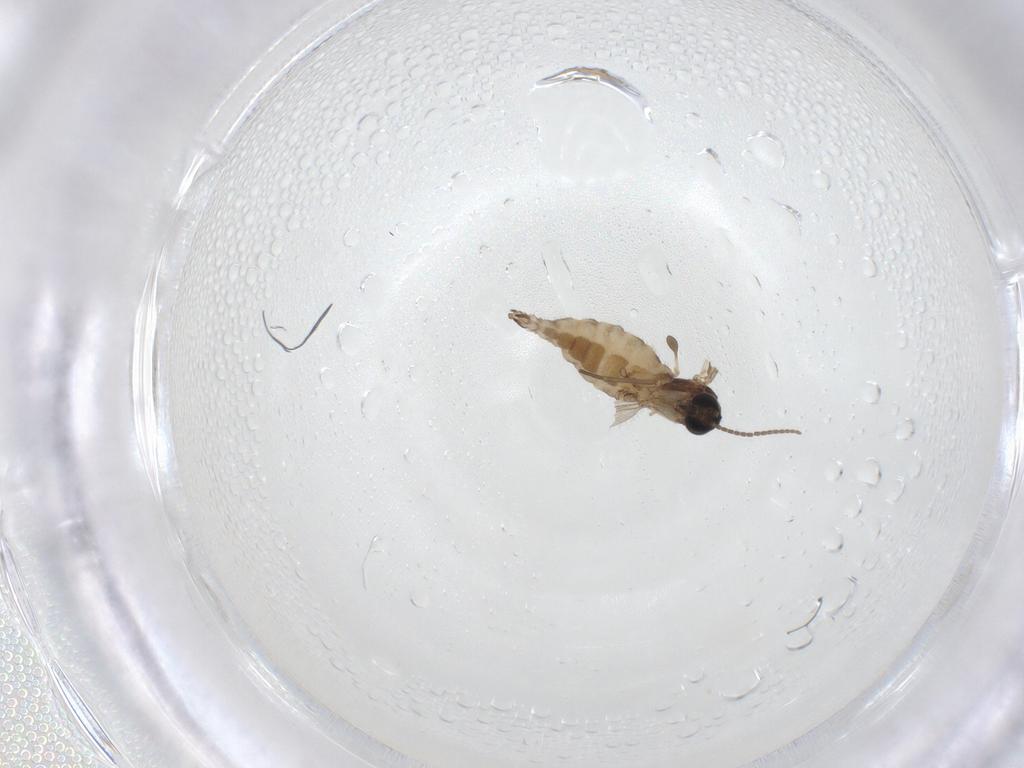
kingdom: Animalia
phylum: Arthropoda
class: Insecta
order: Diptera
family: Sciaridae
